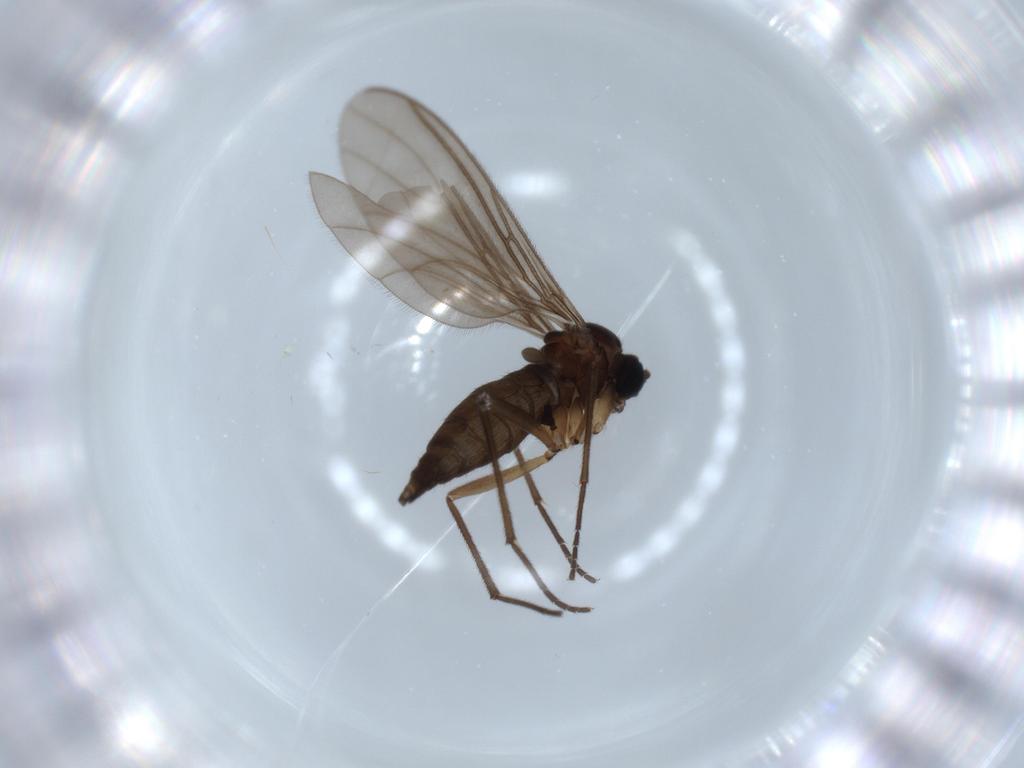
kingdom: Animalia
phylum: Arthropoda
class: Insecta
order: Diptera
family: Sciaridae
